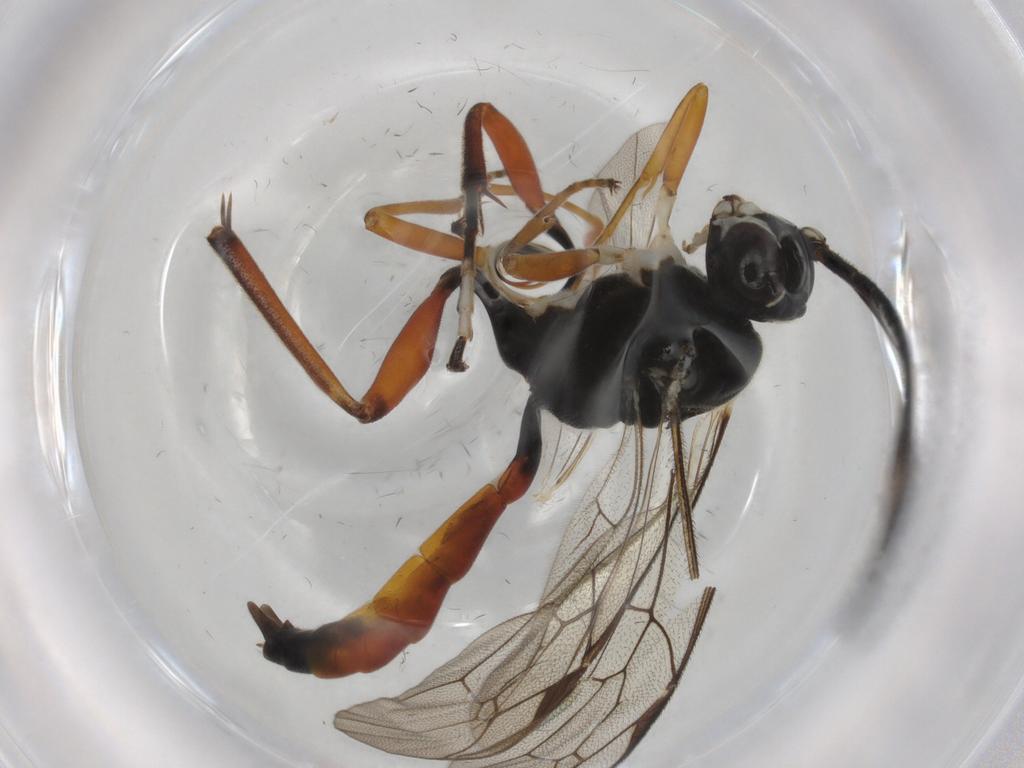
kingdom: Animalia
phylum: Arthropoda
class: Insecta
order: Hymenoptera
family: Ichneumonidae
